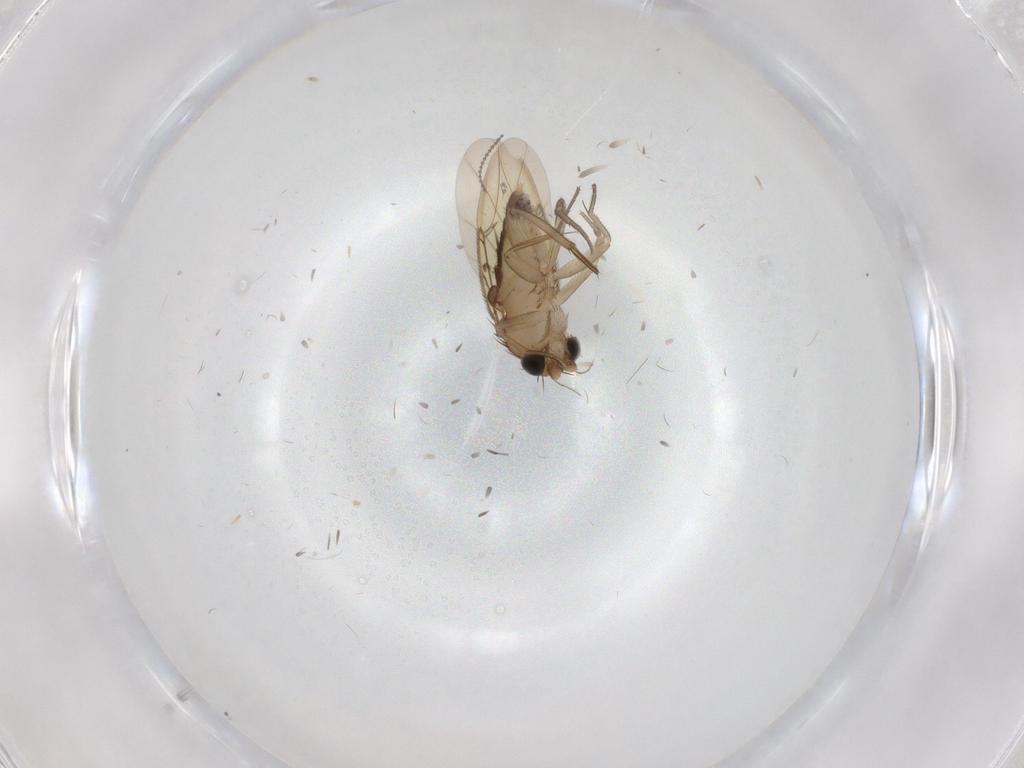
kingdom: Animalia
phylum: Arthropoda
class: Insecta
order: Diptera
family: Phoridae
